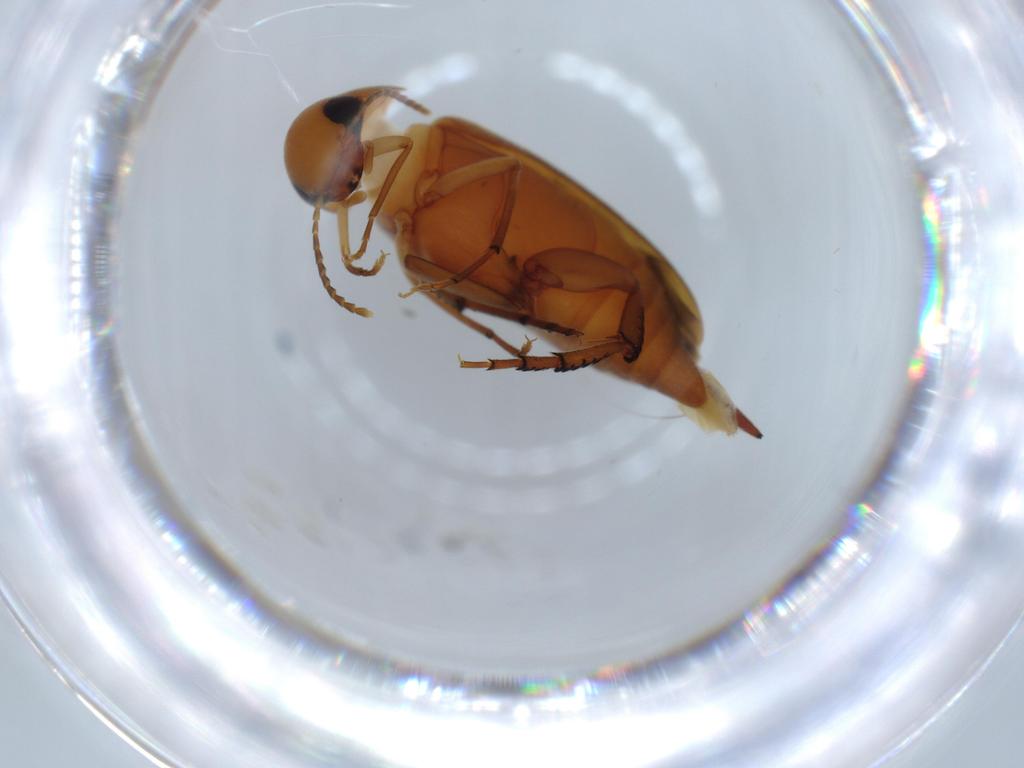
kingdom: Animalia
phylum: Arthropoda
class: Insecta
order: Coleoptera
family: Mordellidae
